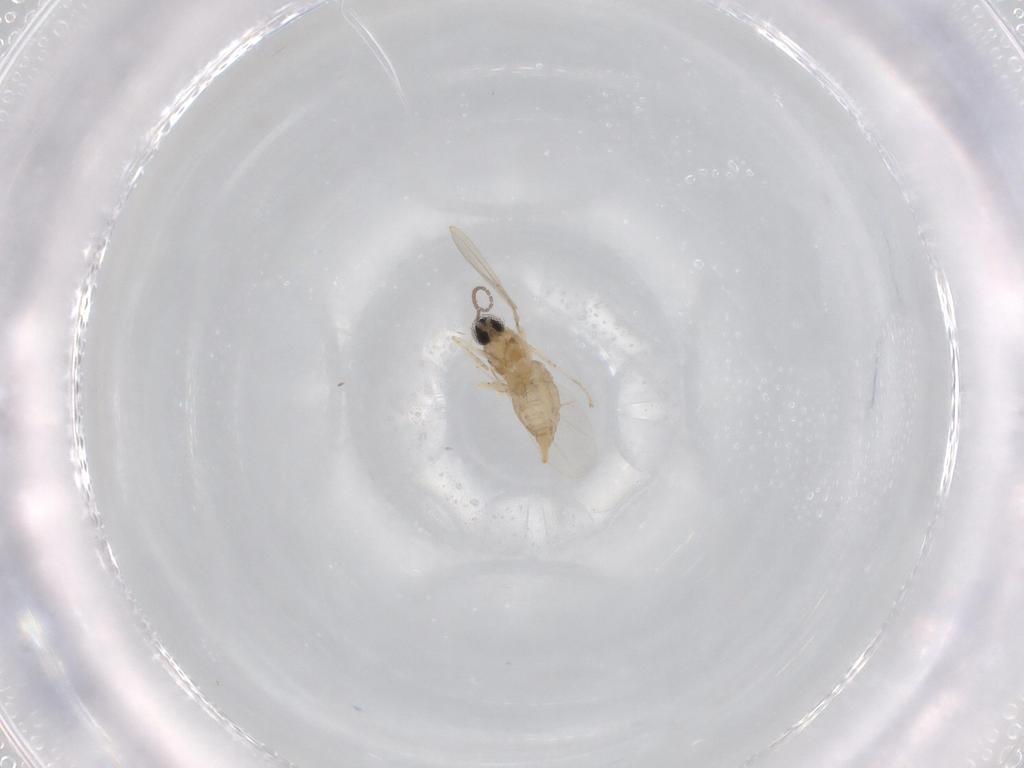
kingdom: Animalia
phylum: Arthropoda
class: Insecta
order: Diptera
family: Cecidomyiidae
